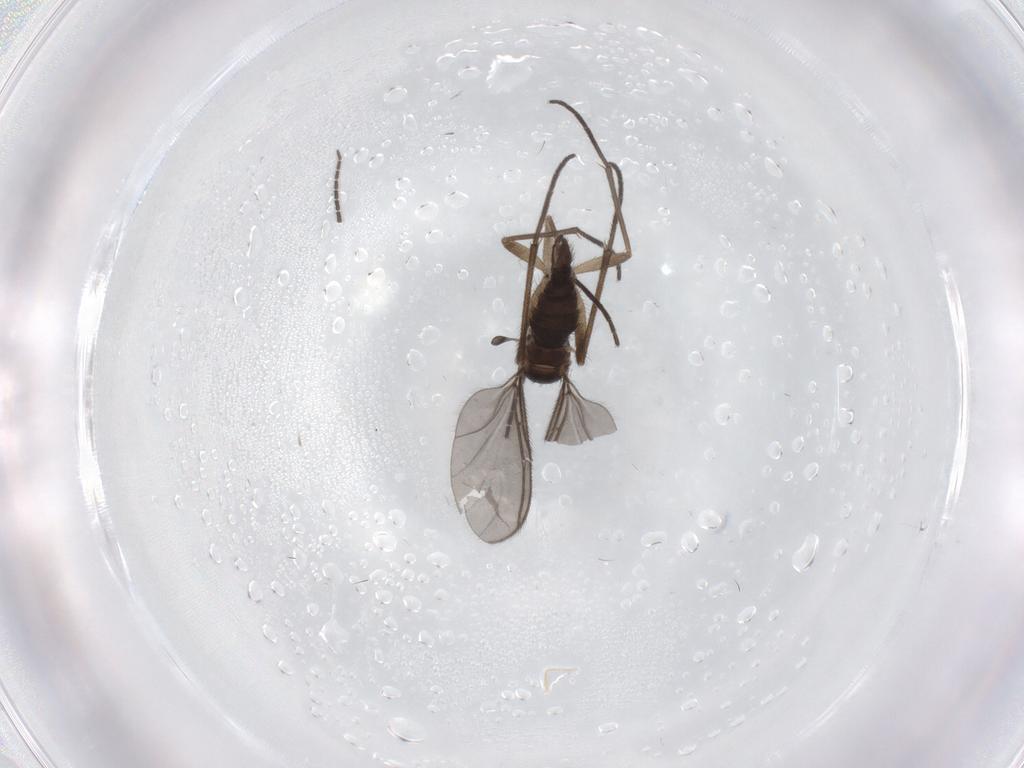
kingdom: Animalia
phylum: Arthropoda
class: Insecta
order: Diptera
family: Sciaridae
